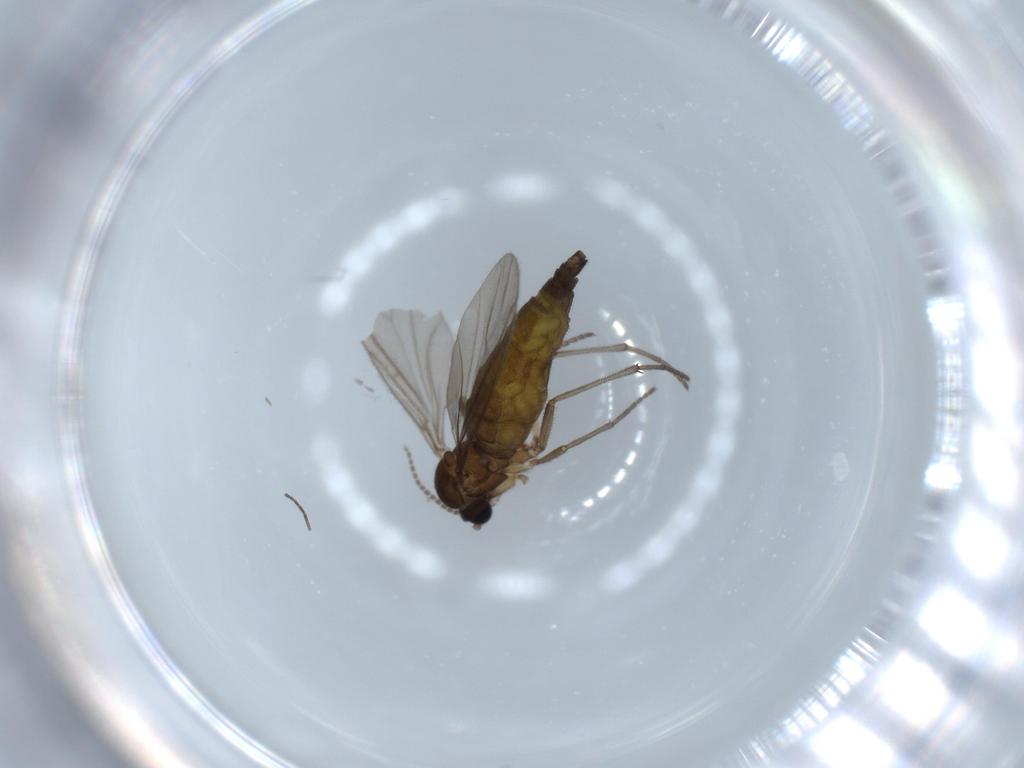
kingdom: Animalia
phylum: Arthropoda
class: Insecta
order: Diptera
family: Sciaridae
